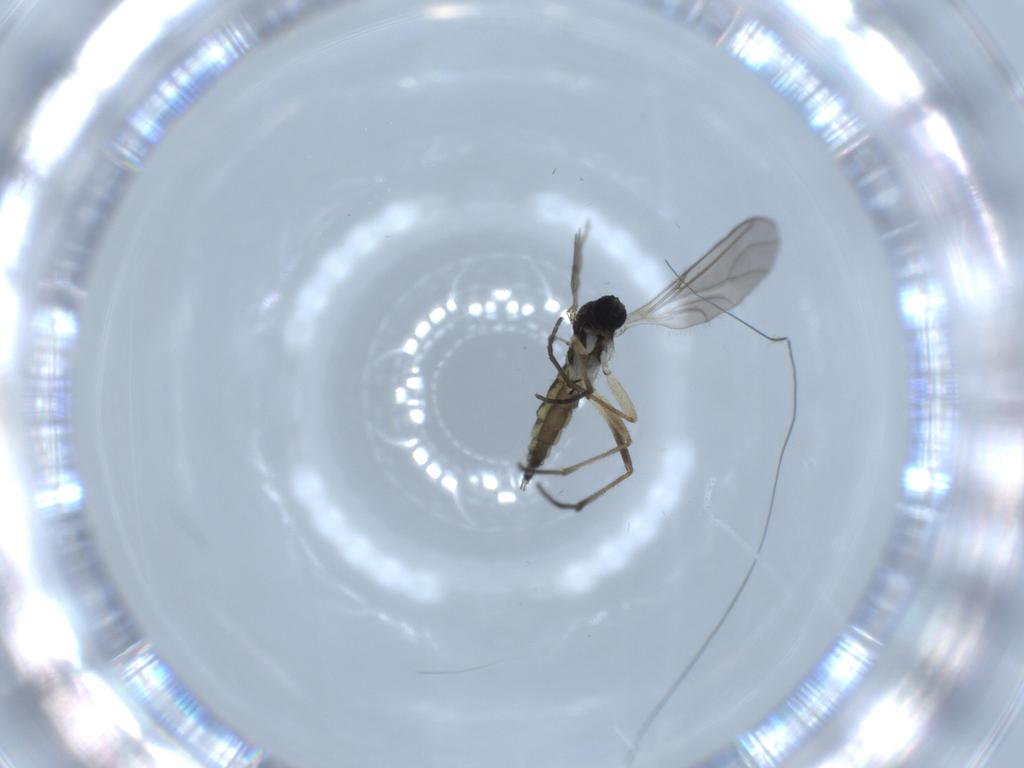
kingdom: Animalia
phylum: Arthropoda
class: Insecta
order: Diptera
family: Sciaridae
